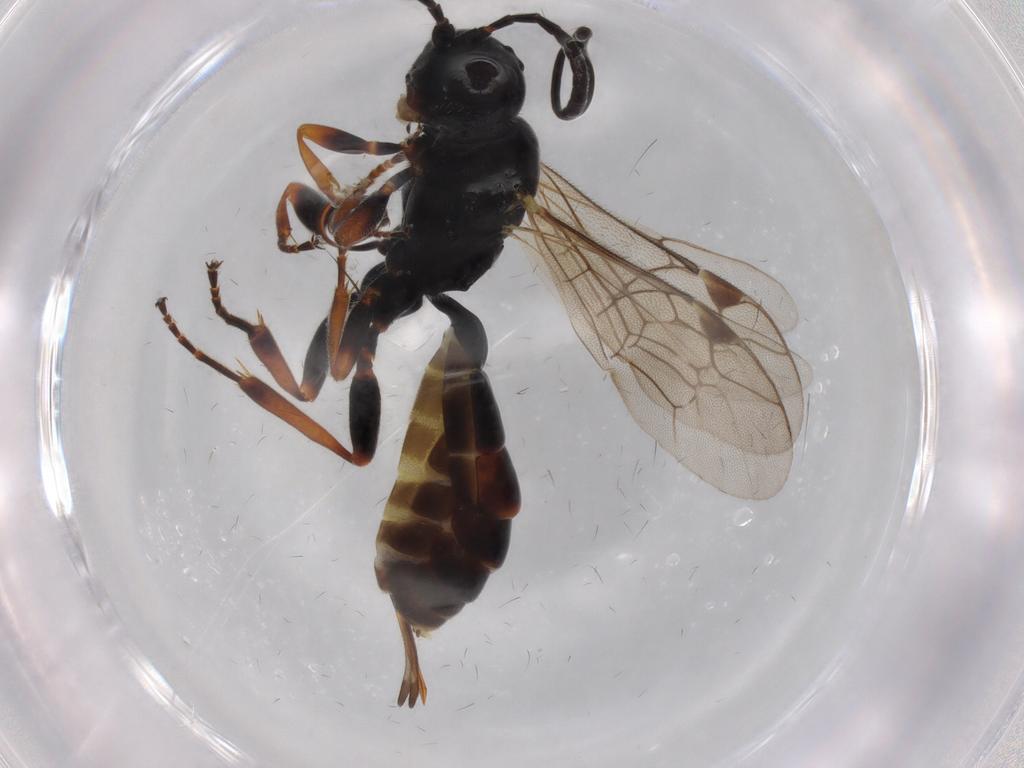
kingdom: Animalia
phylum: Arthropoda
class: Insecta
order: Hymenoptera
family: Ichneumonidae
